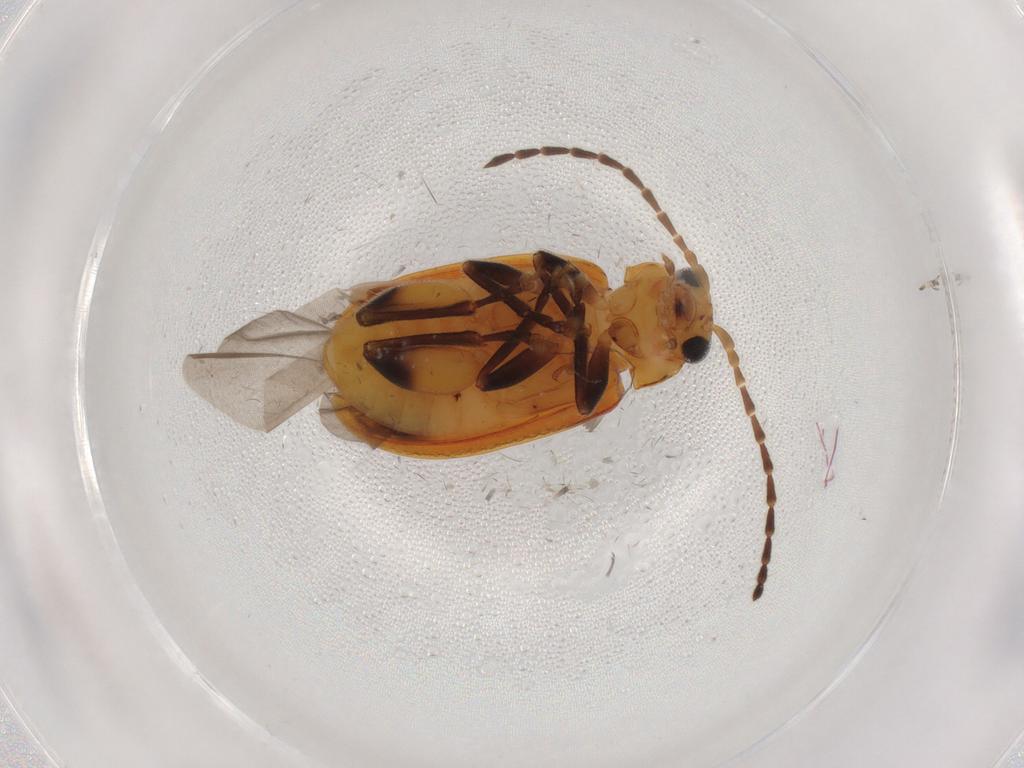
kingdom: Animalia
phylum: Arthropoda
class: Insecta
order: Coleoptera
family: Chrysomelidae
